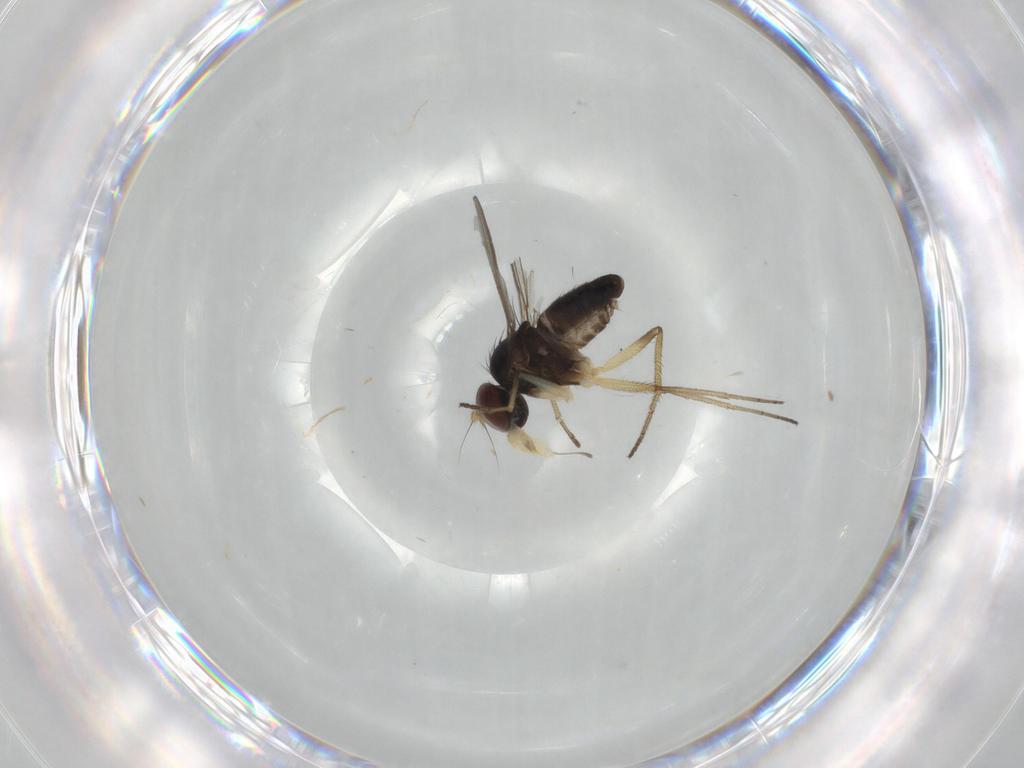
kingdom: Animalia
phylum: Arthropoda
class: Insecta
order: Diptera
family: Dolichopodidae
